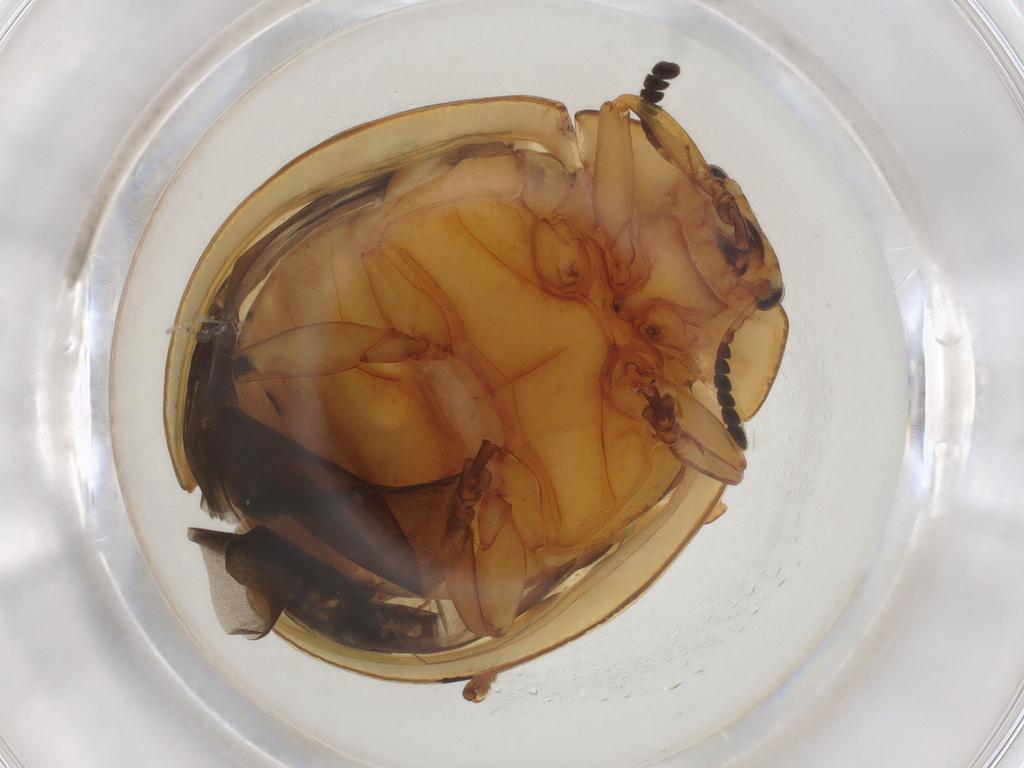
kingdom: Animalia
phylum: Arthropoda
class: Insecta
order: Coleoptera
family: Chrysomelidae
